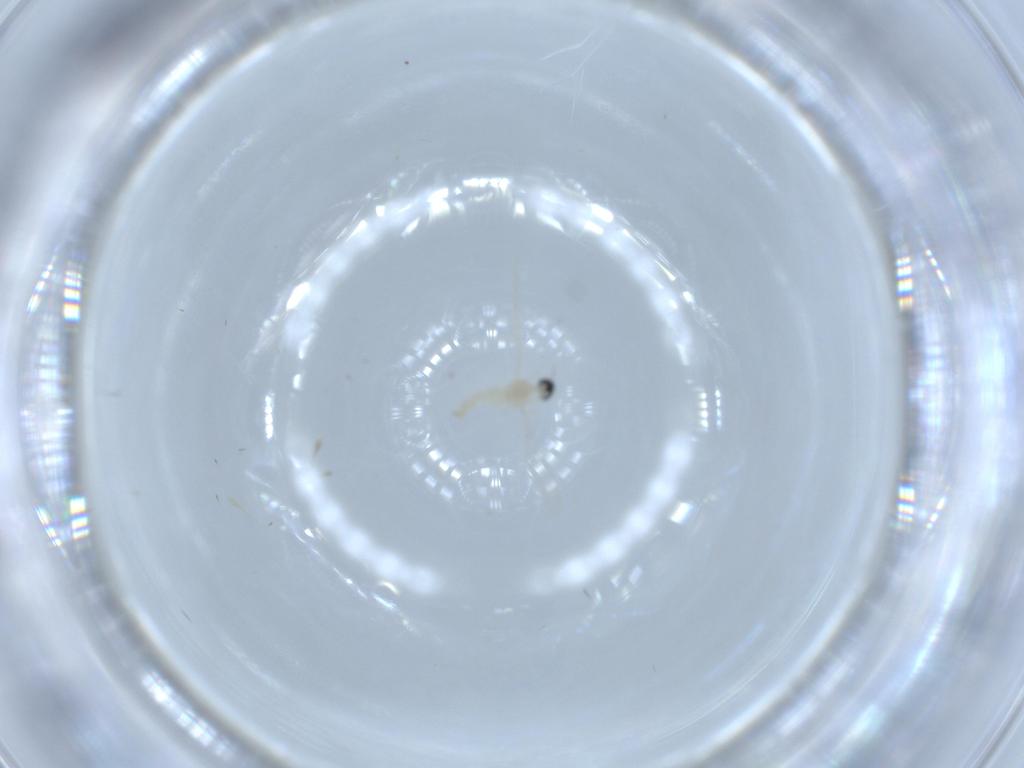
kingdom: Animalia
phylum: Arthropoda
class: Insecta
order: Diptera
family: Cecidomyiidae
